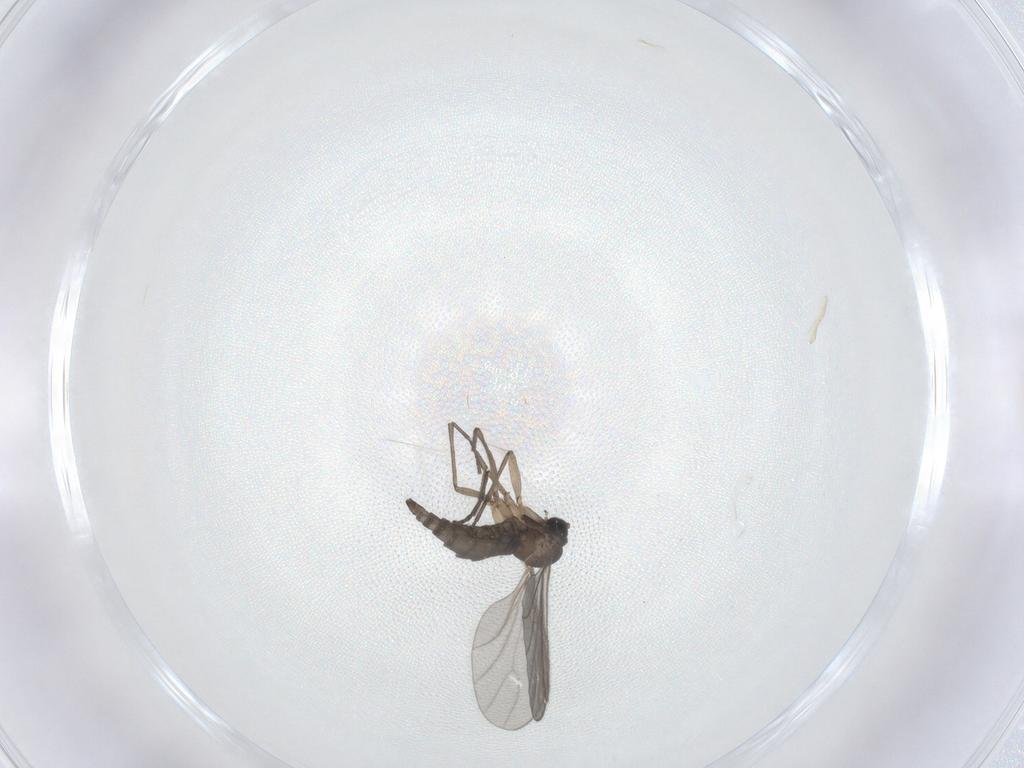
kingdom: Animalia
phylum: Arthropoda
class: Insecta
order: Diptera
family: Sciaridae
